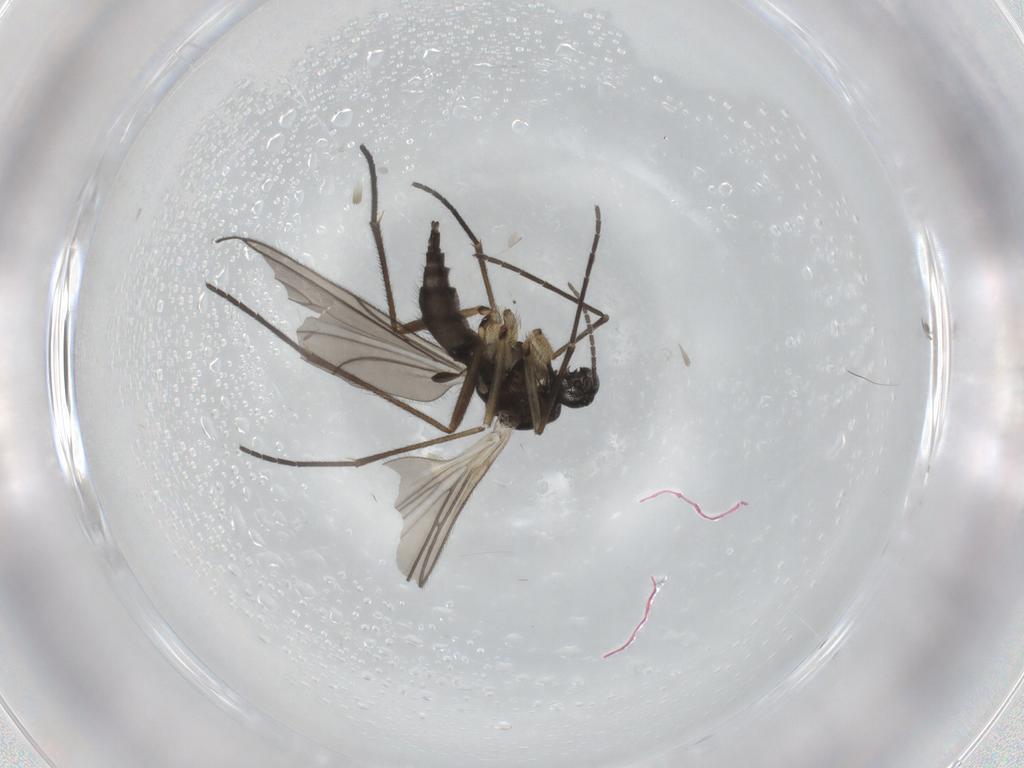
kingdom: Animalia
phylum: Arthropoda
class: Insecta
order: Diptera
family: Sciaridae
